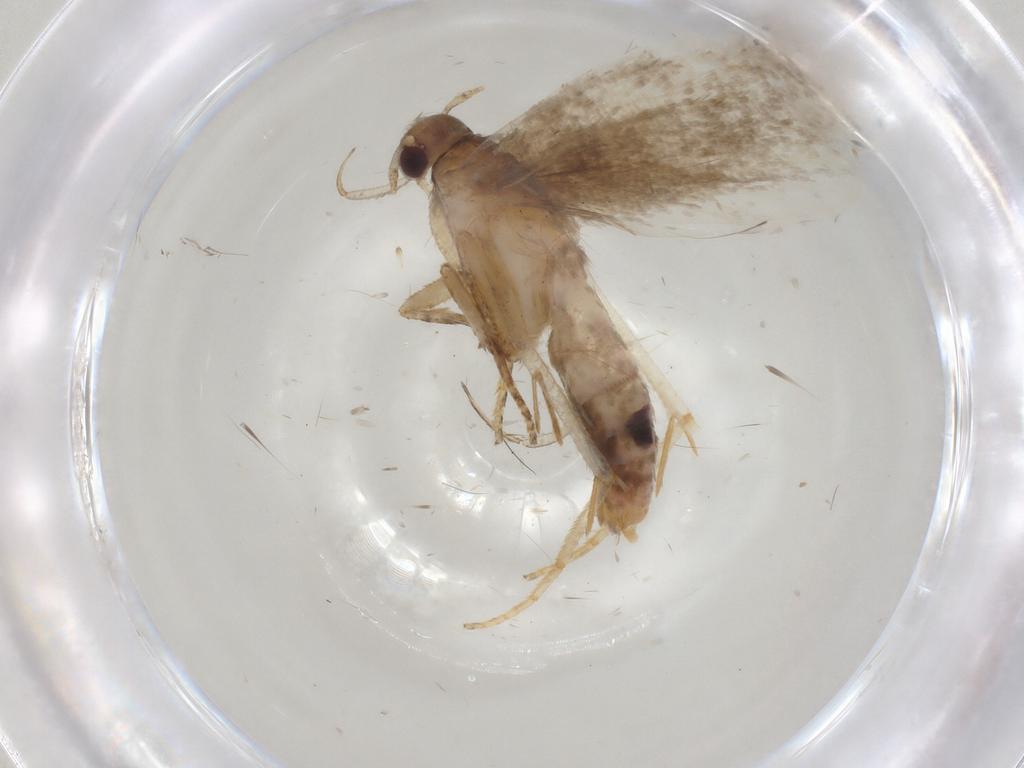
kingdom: Animalia
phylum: Arthropoda
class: Insecta
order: Lepidoptera
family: Gelechiidae
